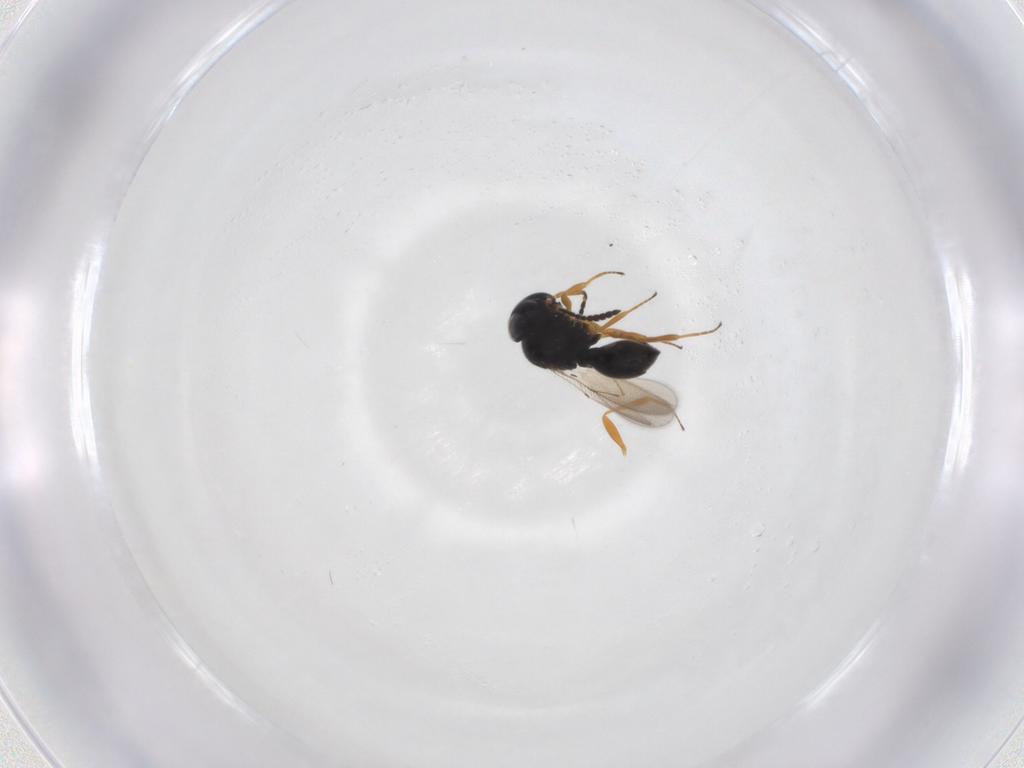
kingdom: Animalia
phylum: Arthropoda
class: Insecta
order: Hymenoptera
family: Scelionidae
